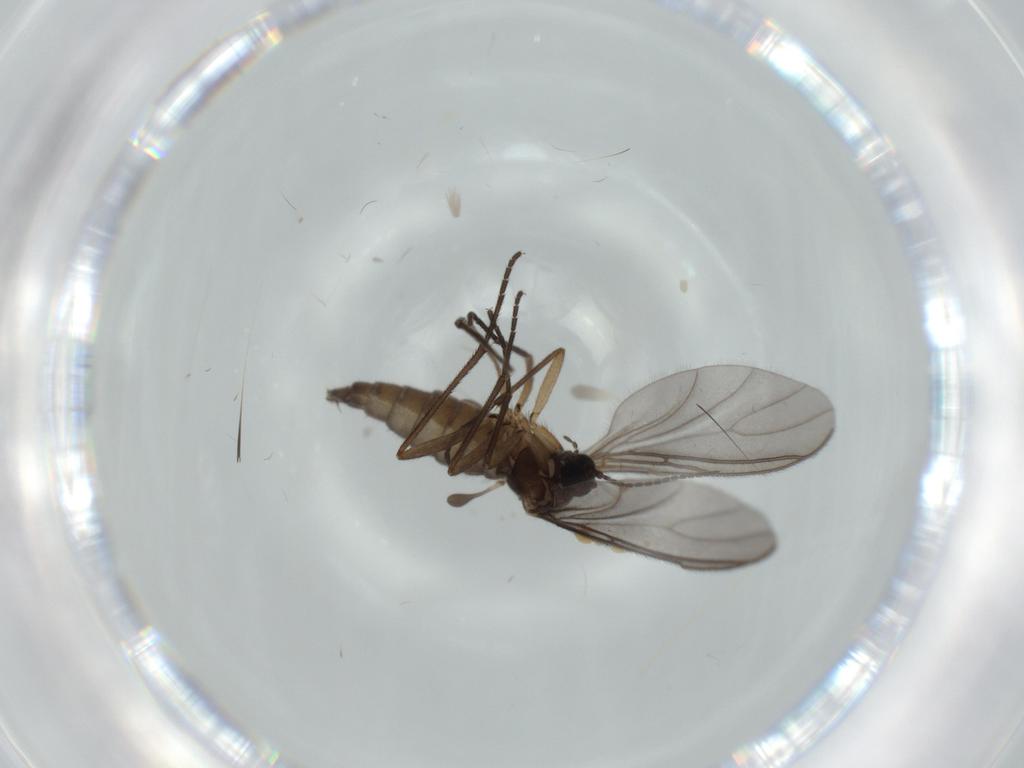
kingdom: Animalia
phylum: Arthropoda
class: Insecta
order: Diptera
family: Sciaridae
